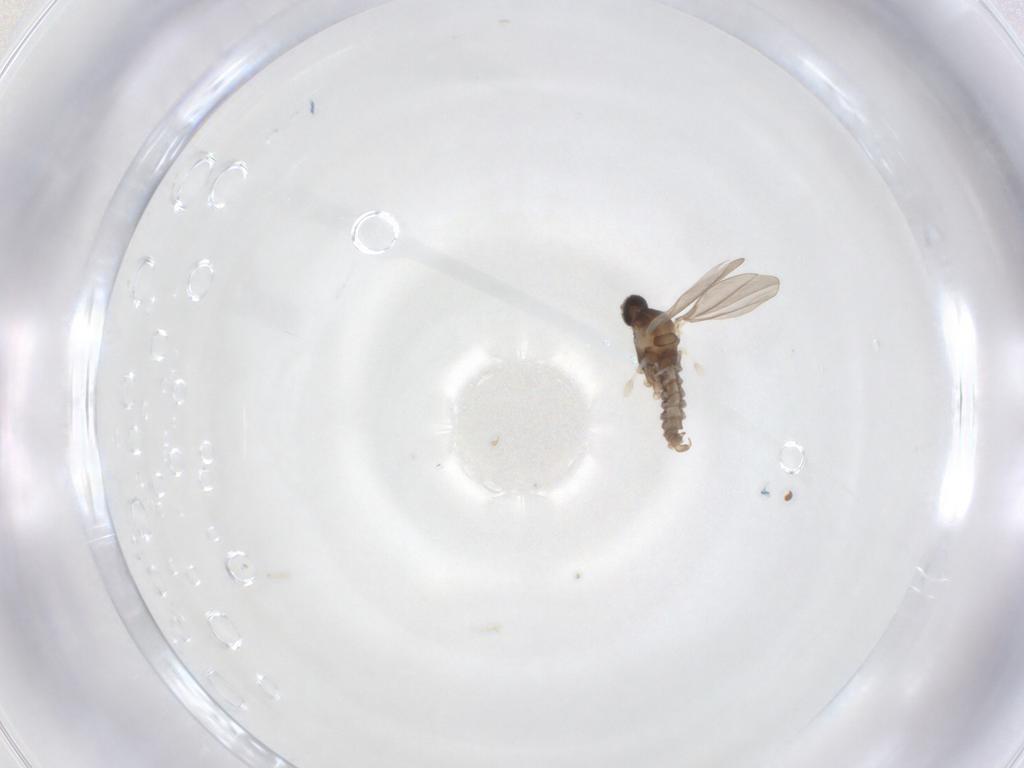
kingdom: Animalia
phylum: Arthropoda
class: Insecta
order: Diptera
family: Cecidomyiidae
